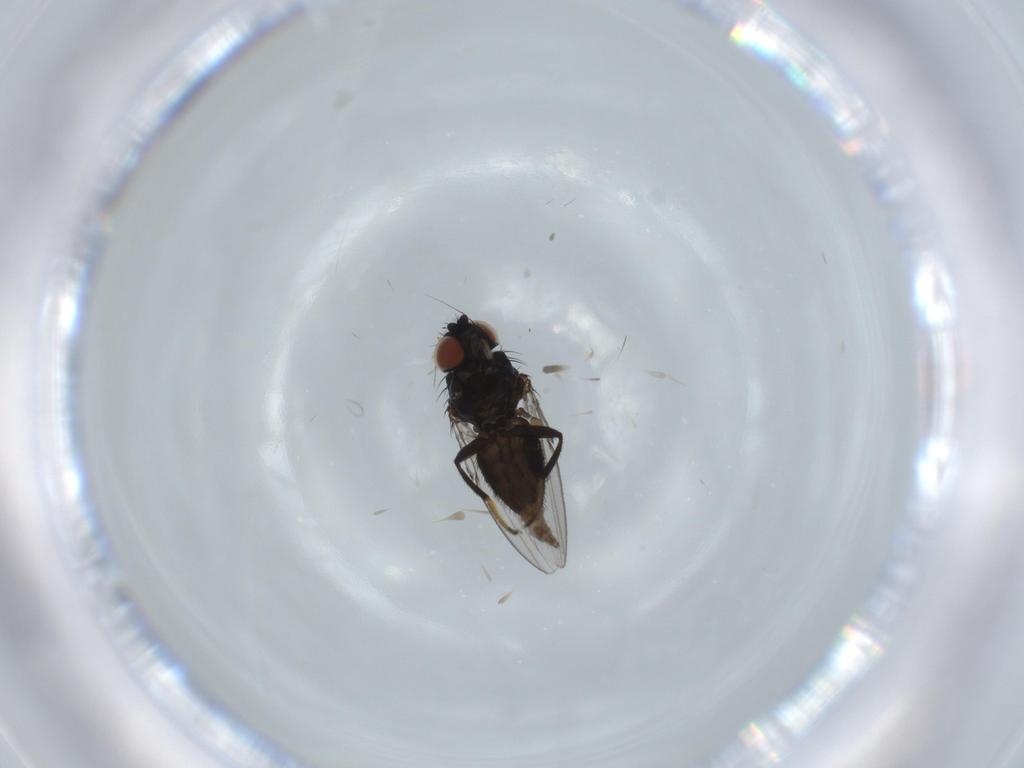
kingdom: Animalia
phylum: Arthropoda
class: Insecta
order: Diptera
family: Milichiidae
